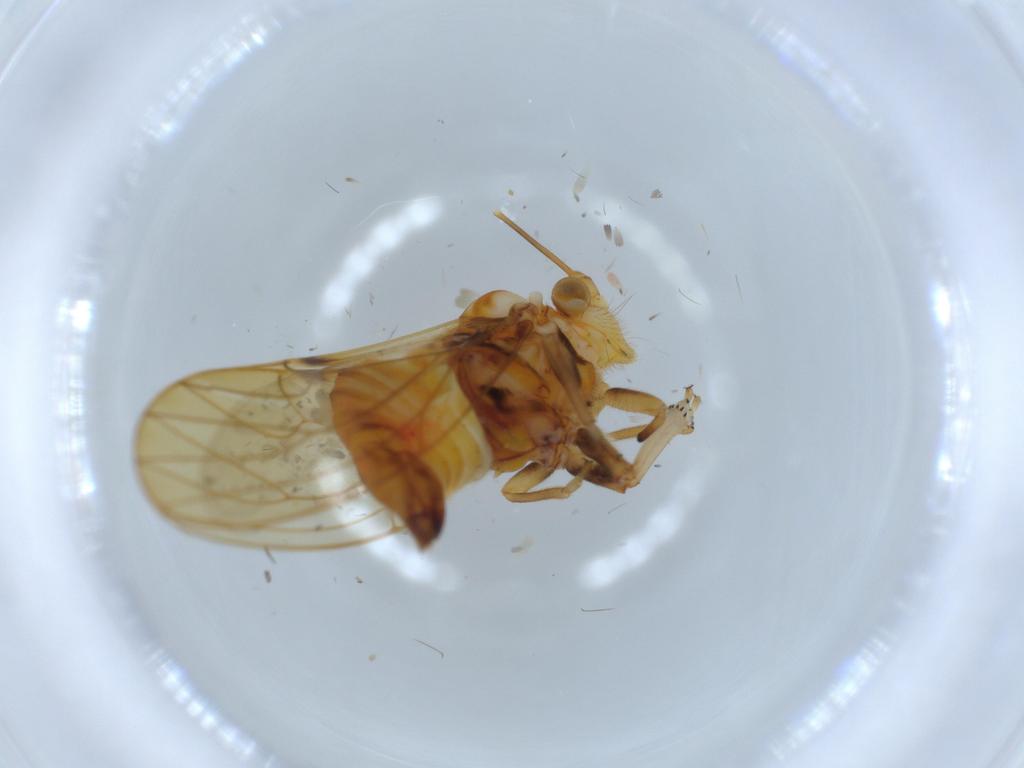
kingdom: Animalia
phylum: Arthropoda
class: Insecta
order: Hemiptera
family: Psyllidae
